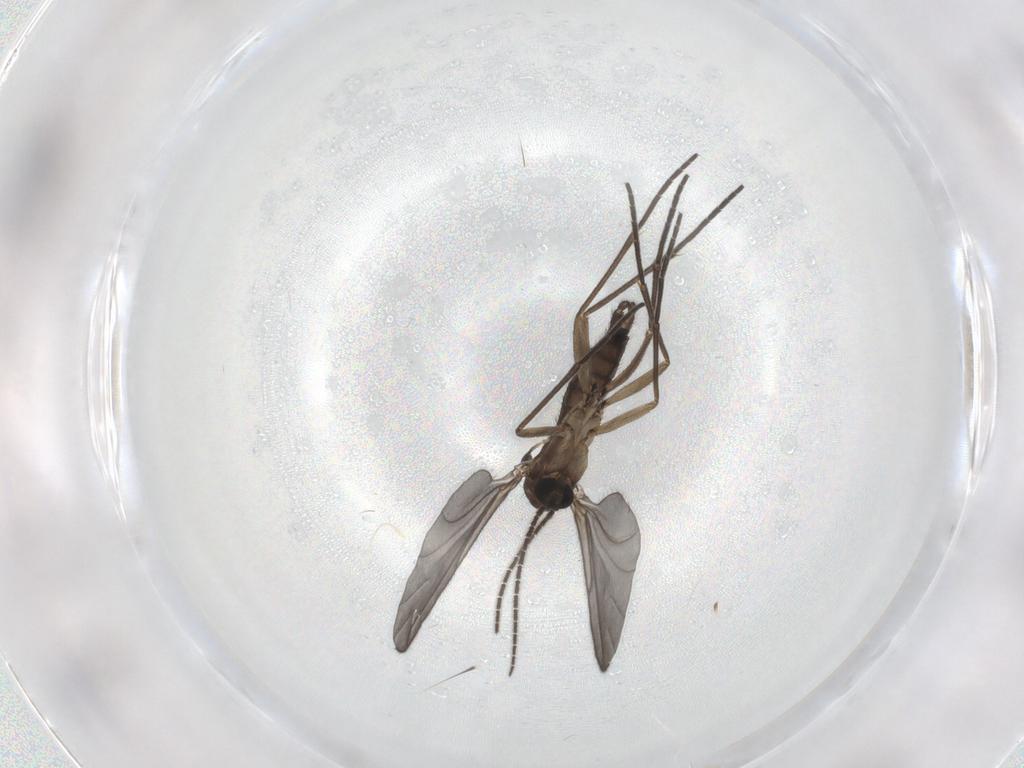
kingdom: Animalia
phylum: Arthropoda
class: Insecta
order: Diptera
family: Sciaridae
